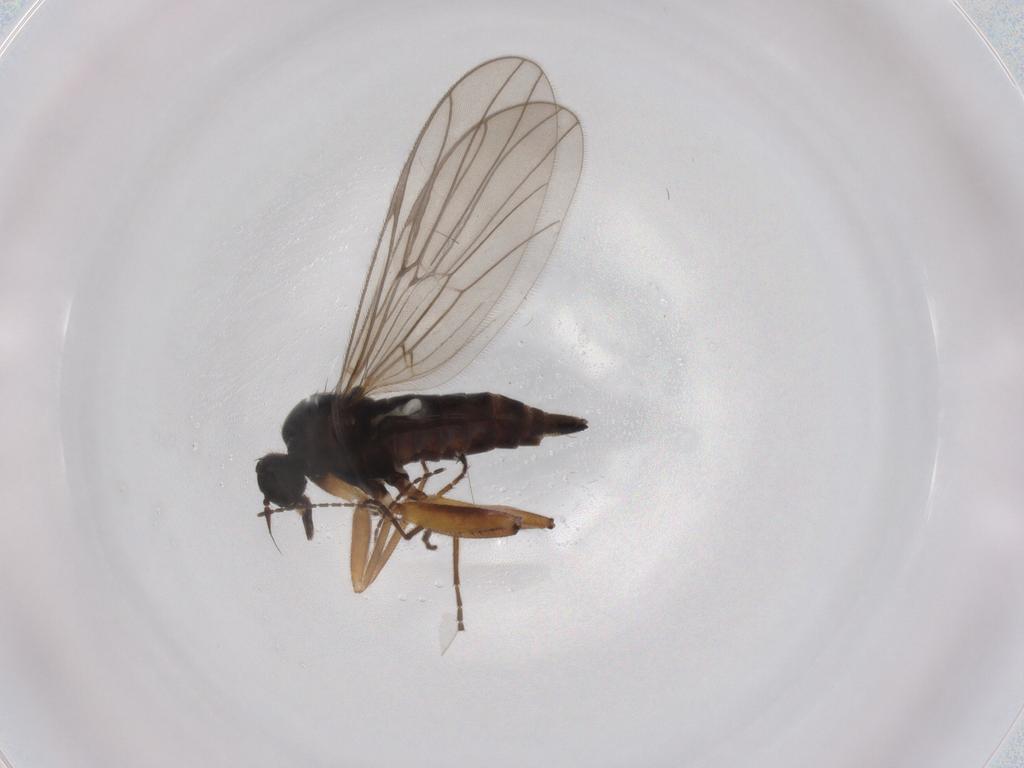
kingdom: Animalia
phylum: Arthropoda
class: Insecta
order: Diptera
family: Hybotidae
